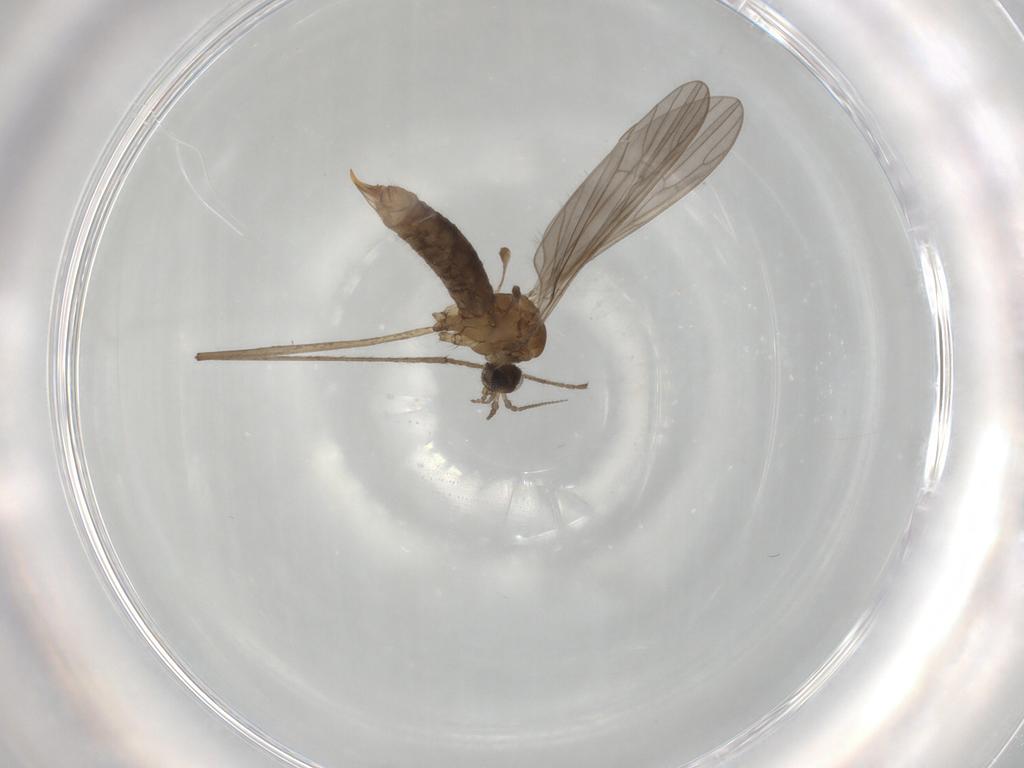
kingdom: Animalia
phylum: Arthropoda
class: Insecta
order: Diptera
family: Limoniidae
